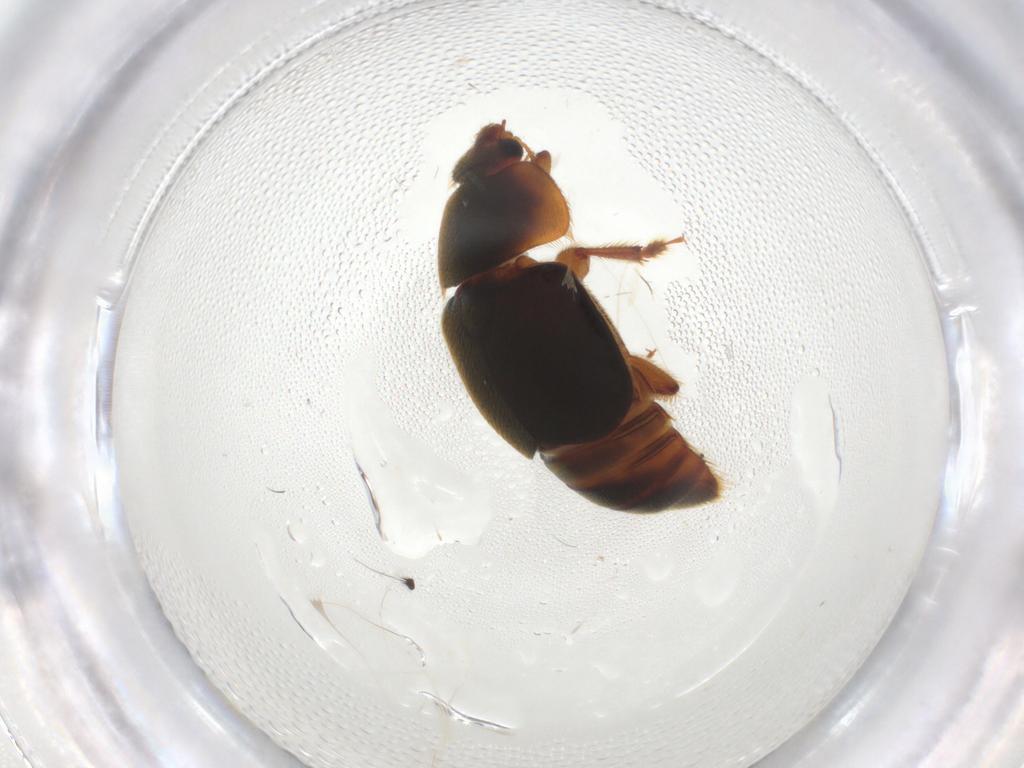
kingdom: Animalia
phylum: Arthropoda
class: Insecta
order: Coleoptera
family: Nitidulidae
